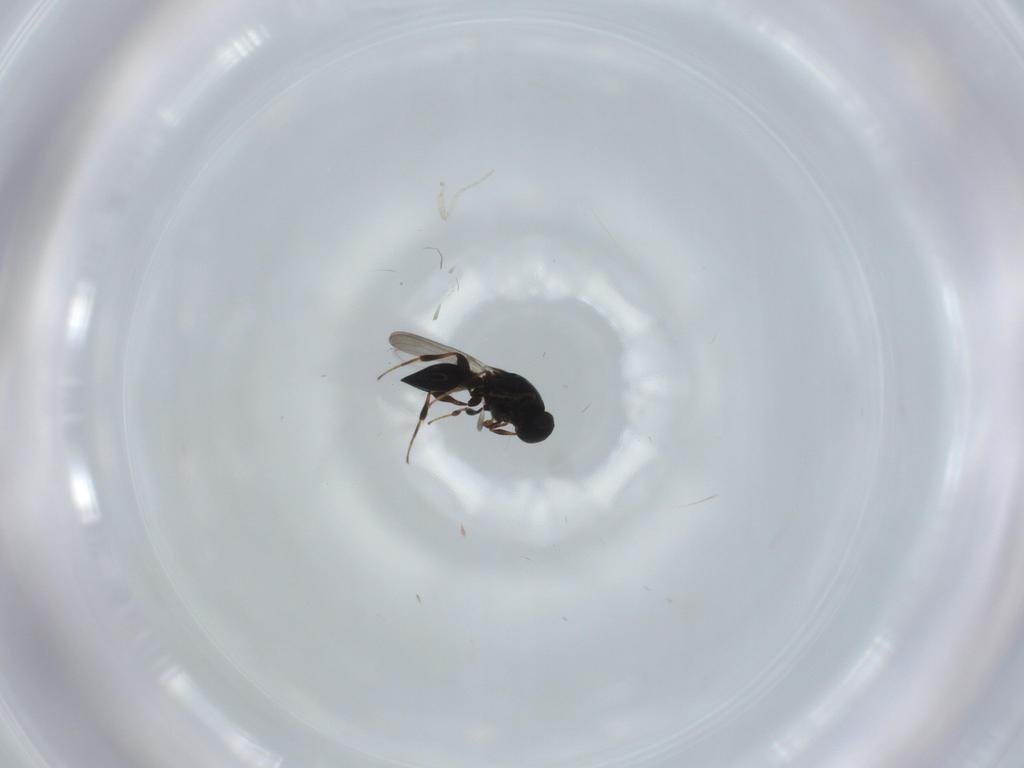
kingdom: Animalia
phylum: Arthropoda
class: Insecta
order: Hymenoptera
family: Platygastridae
